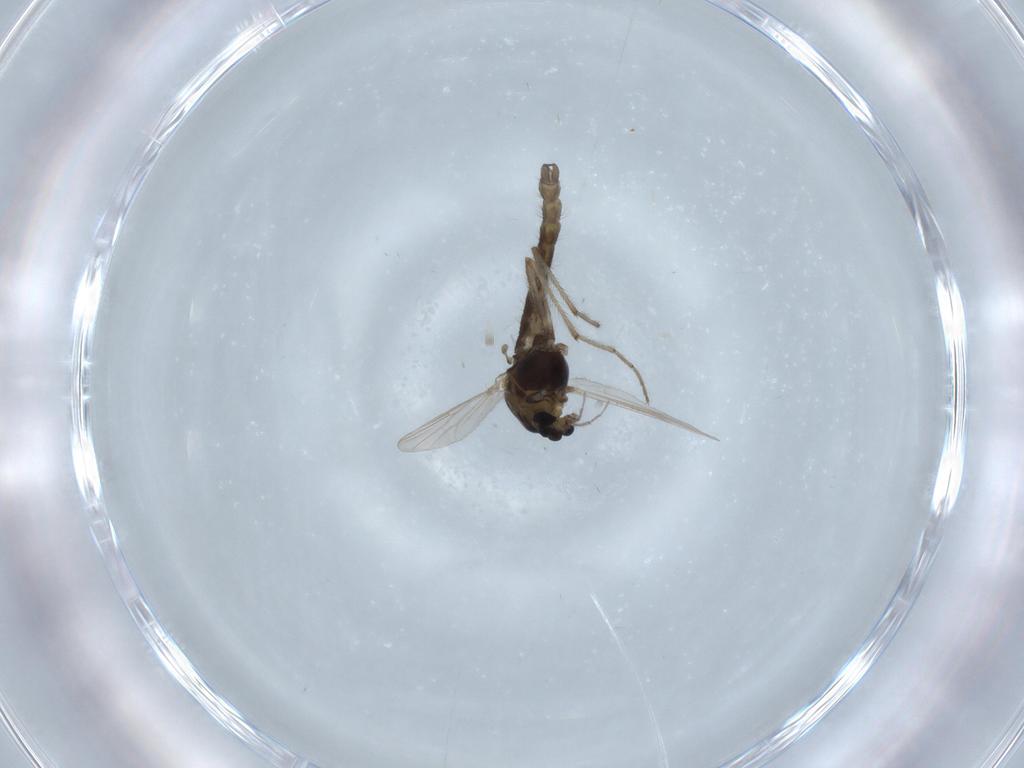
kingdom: Animalia
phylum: Arthropoda
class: Insecta
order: Diptera
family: Chironomidae
